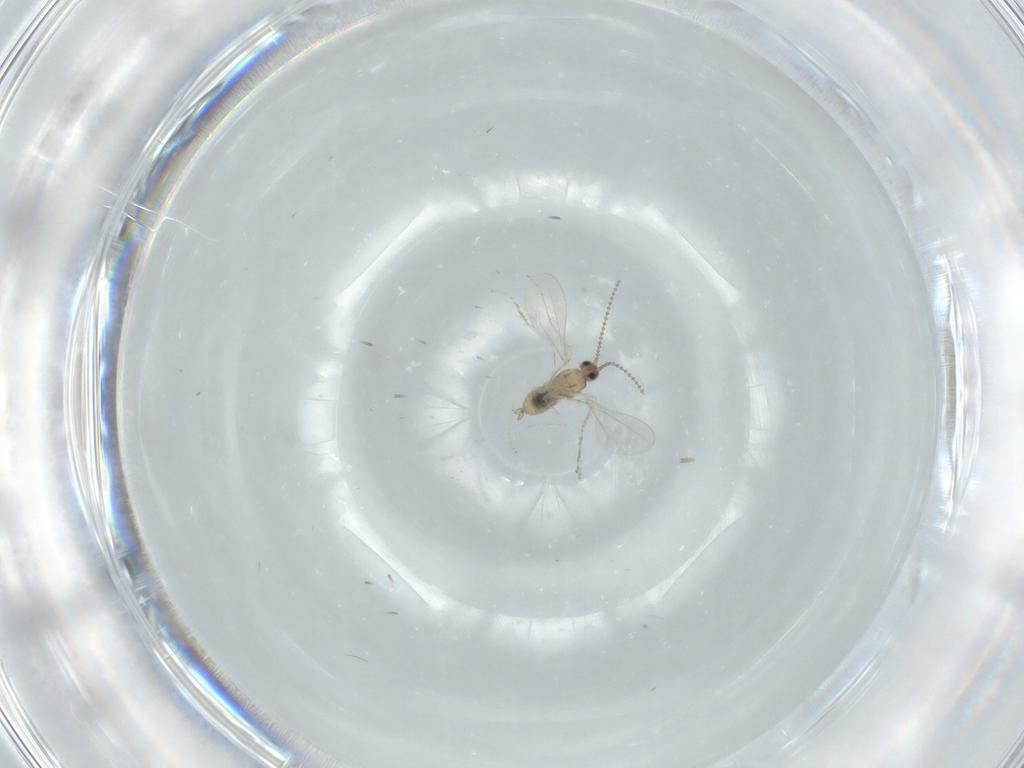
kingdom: Animalia
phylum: Arthropoda
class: Insecta
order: Diptera
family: Cecidomyiidae
